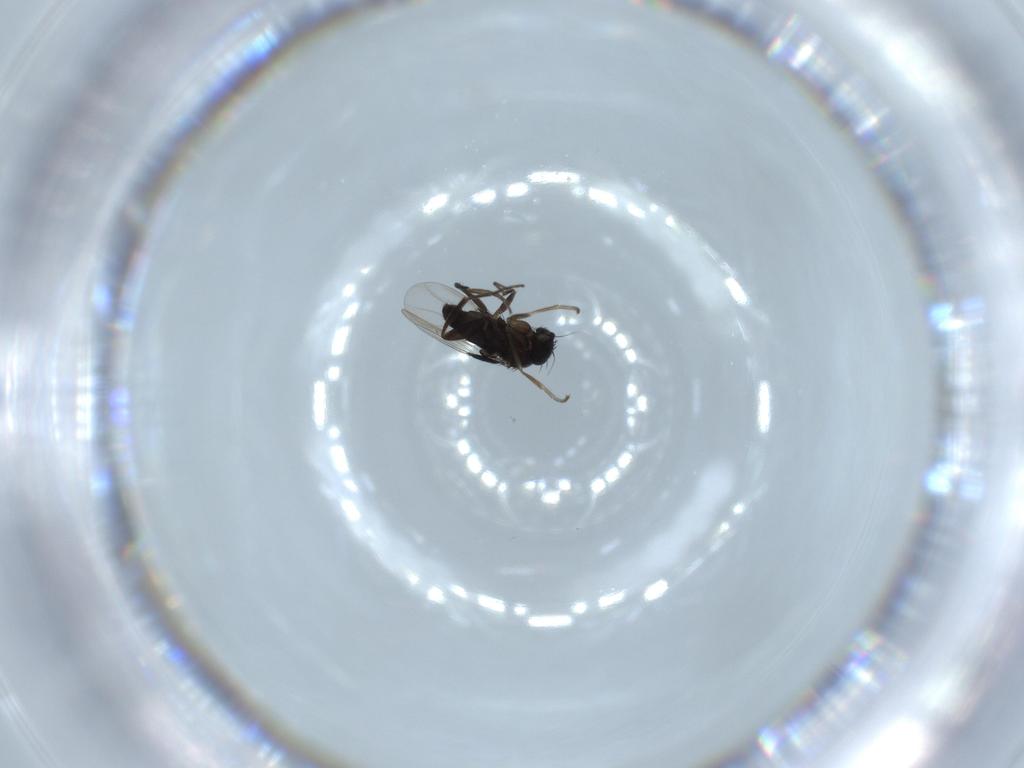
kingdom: Animalia
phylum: Arthropoda
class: Insecta
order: Diptera
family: Phoridae
